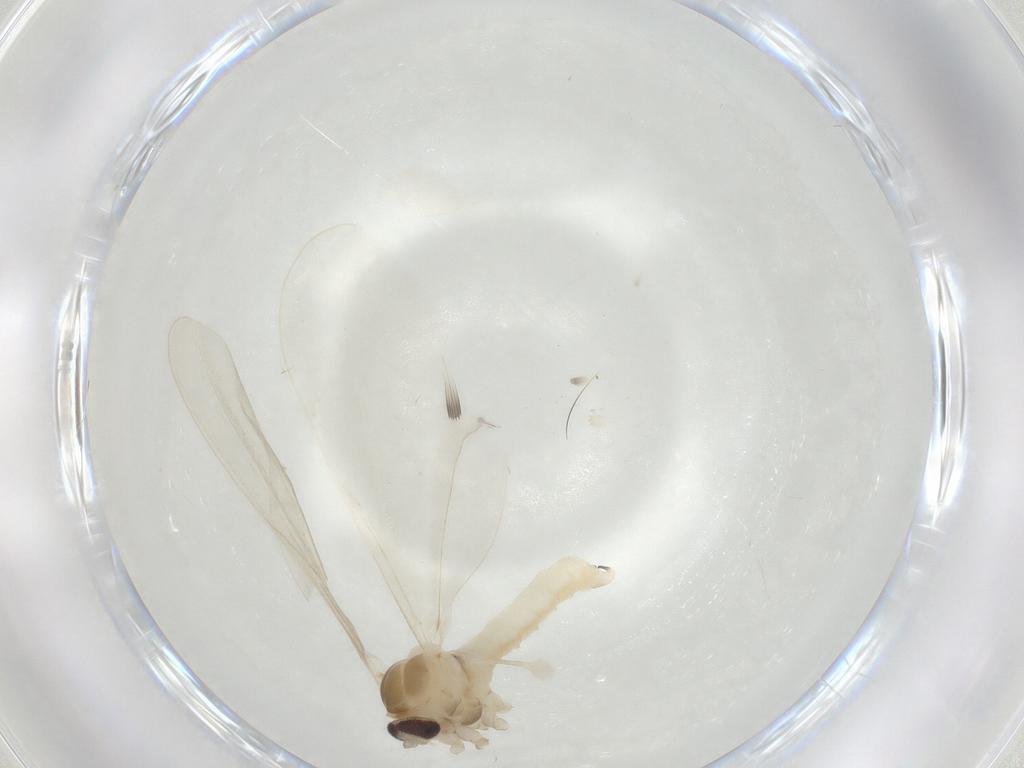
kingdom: Animalia
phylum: Arthropoda
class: Insecta
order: Diptera
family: Cecidomyiidae
